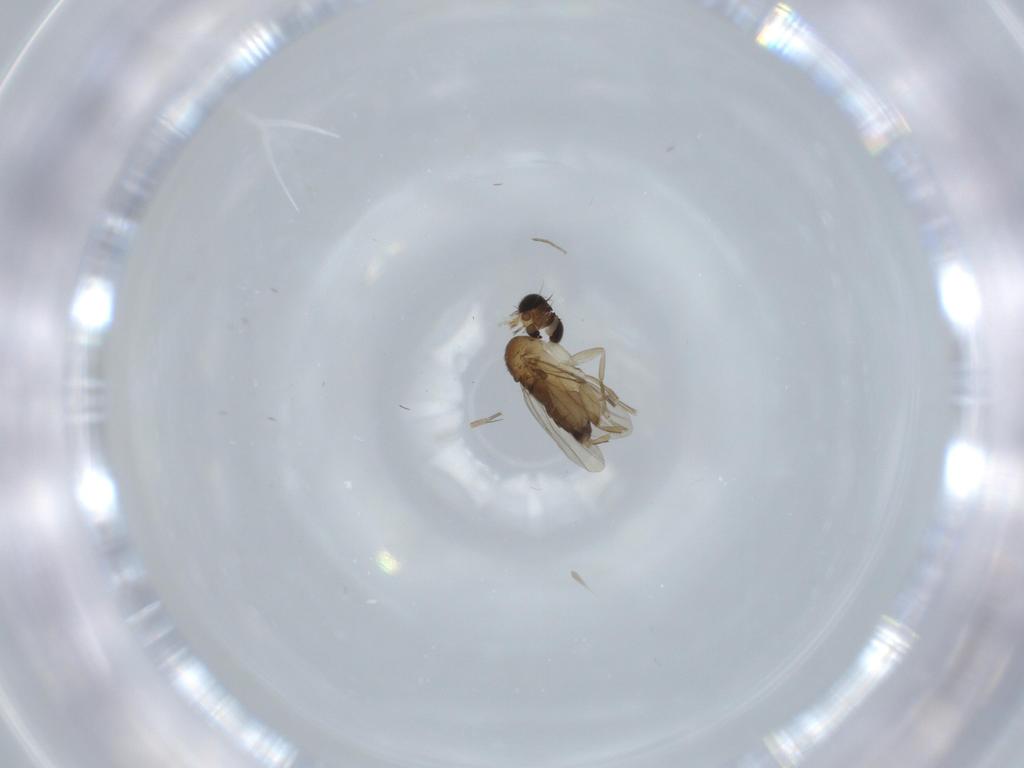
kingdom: Animalia
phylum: Arthropoda
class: Insecta
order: Diptera
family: Phoridae
